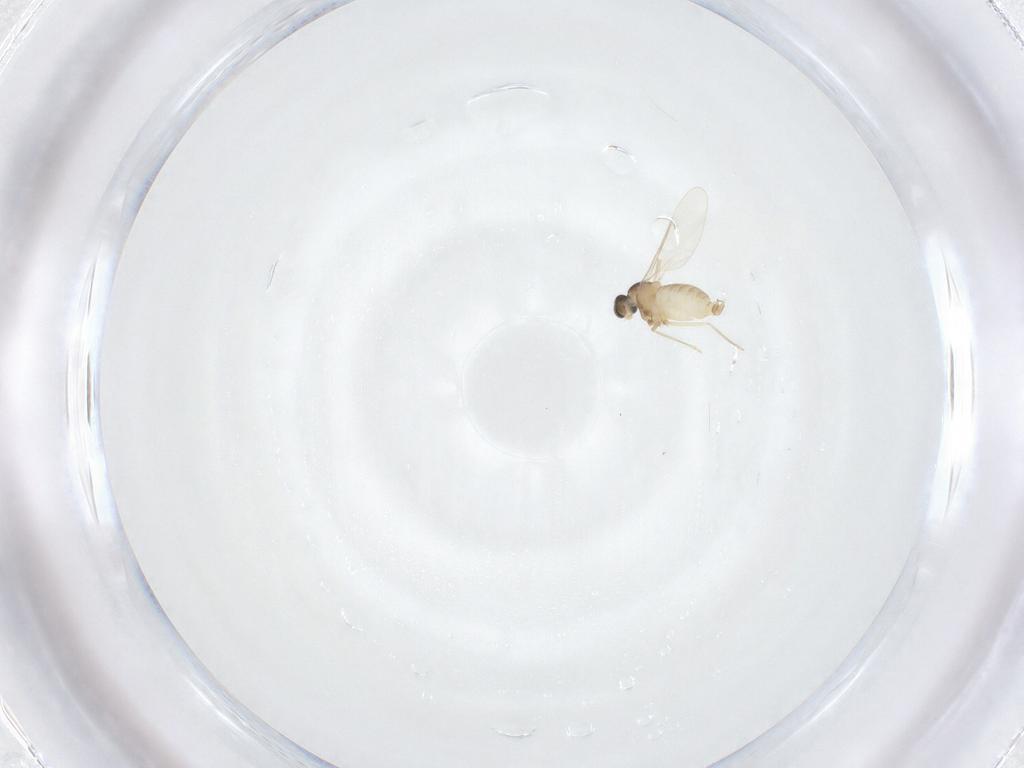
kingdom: Animalia
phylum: Arthropoda
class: Insecta
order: Diptera
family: Cecidomyiidae
